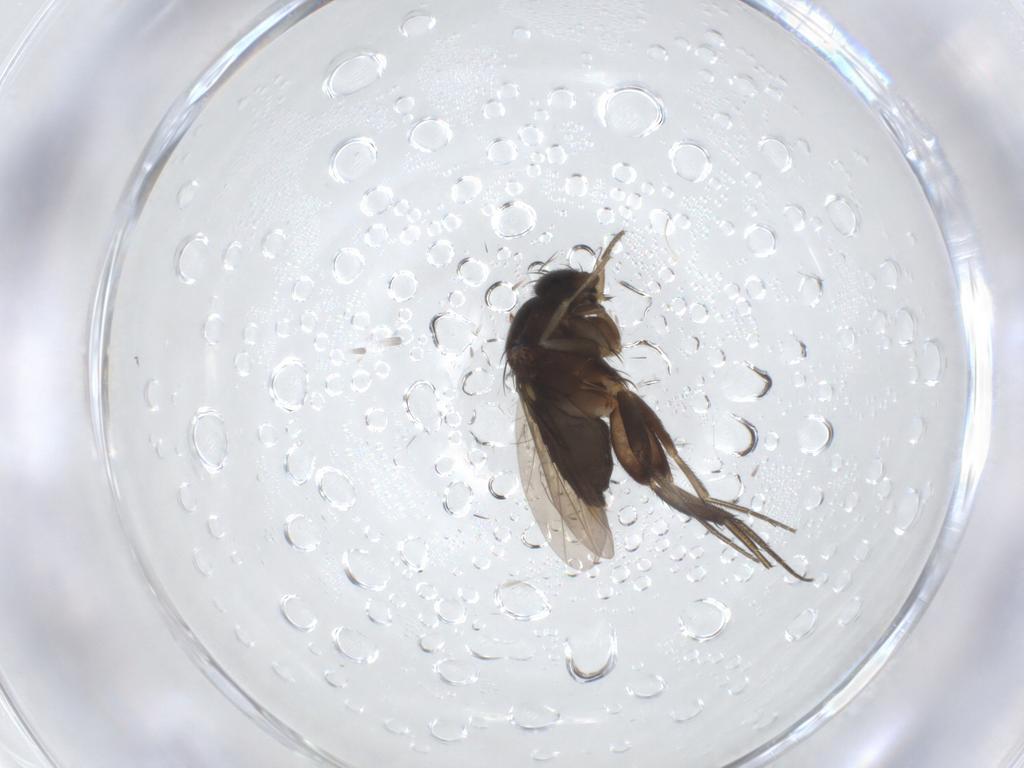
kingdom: Animalia
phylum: Arthropoda
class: Insecta
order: Diptera
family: Phoridae
